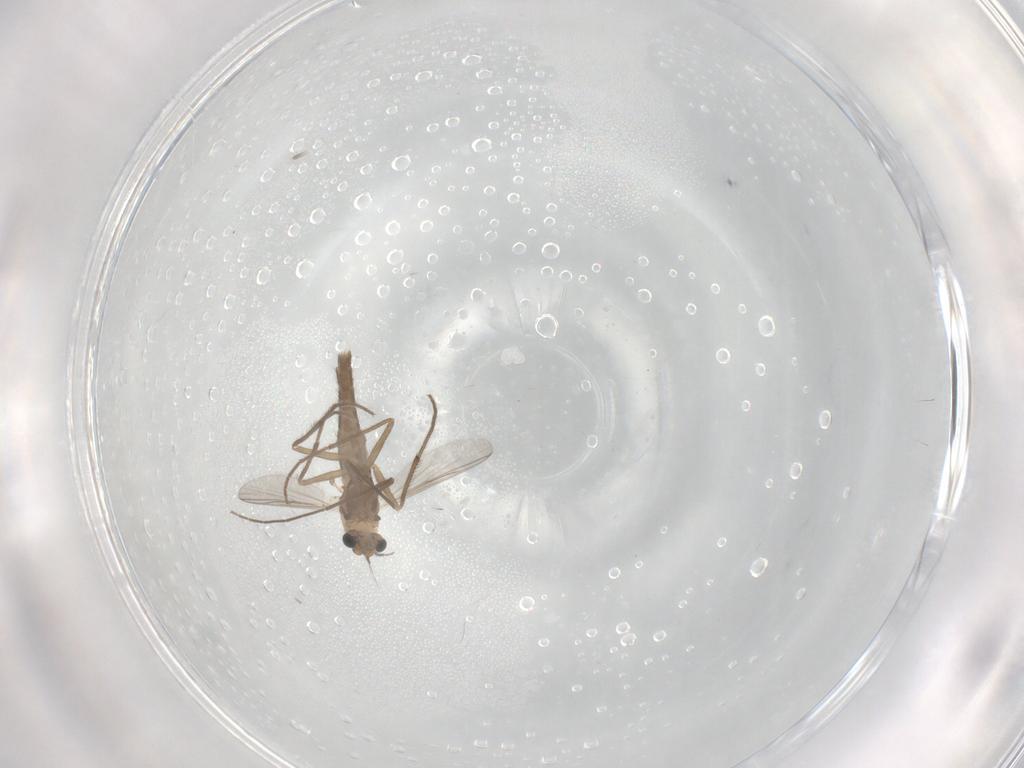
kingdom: Animalia
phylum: Arthropoda
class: Insecta
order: Diptera
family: Chironomidae
